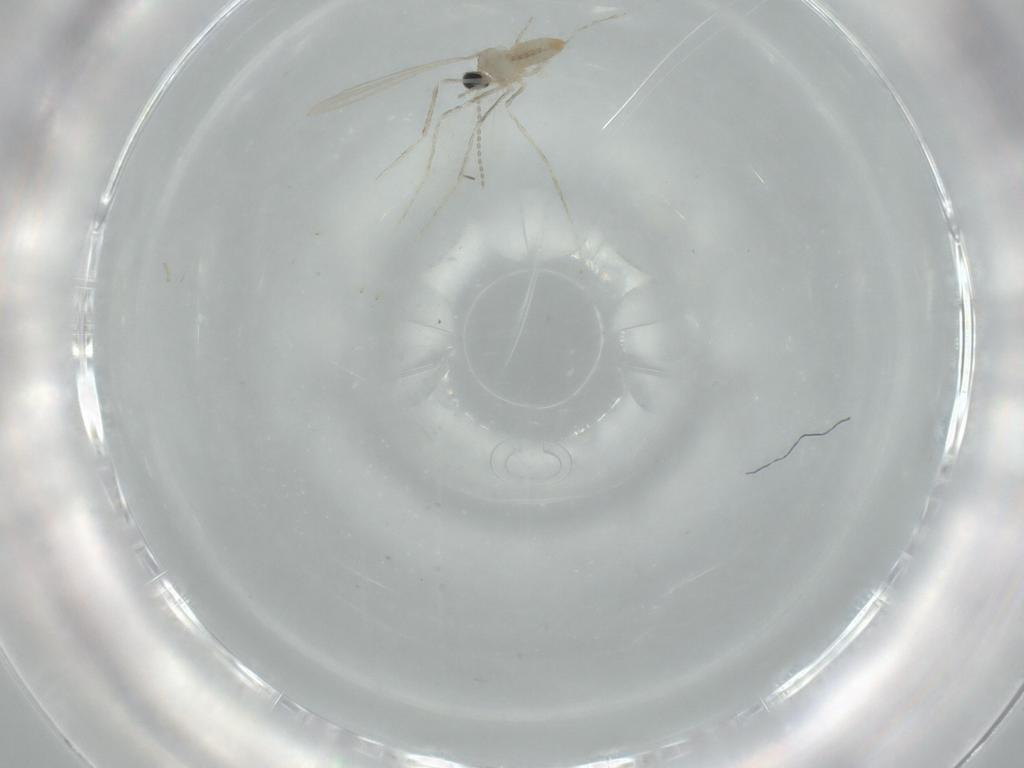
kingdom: Animalia
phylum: Arthropoda
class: Insecta
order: Diptera
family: Cecidomyiidae
